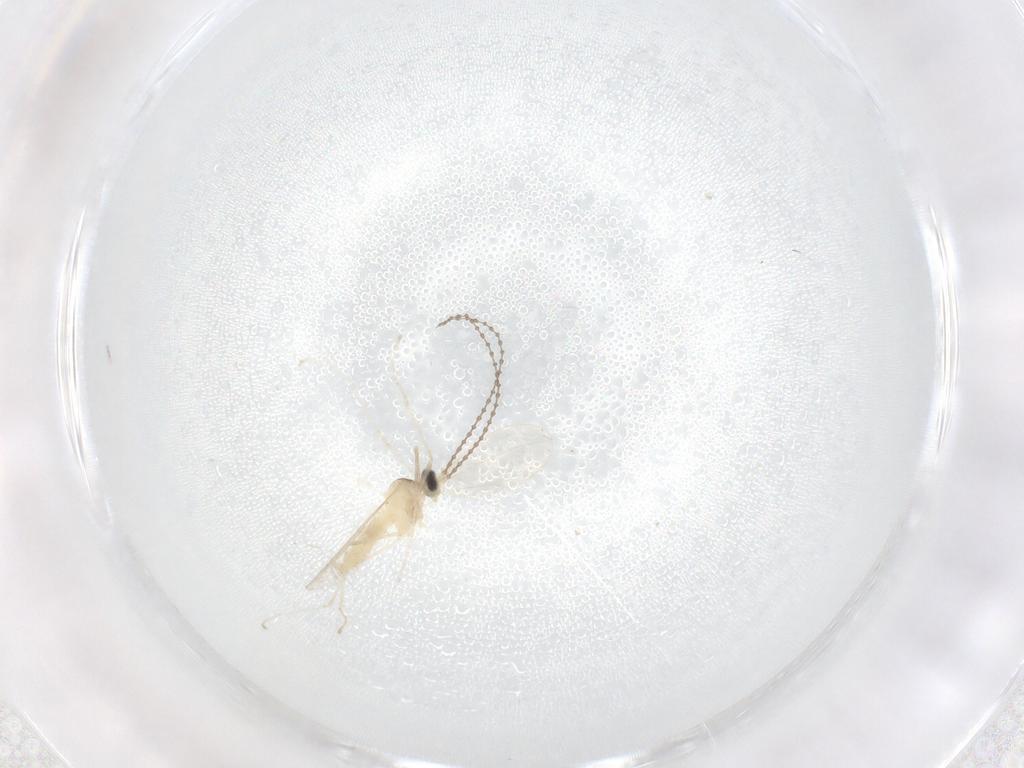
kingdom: Animalia
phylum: Arthropoda
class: Insecta
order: Diptera
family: Cecidomyiidae
